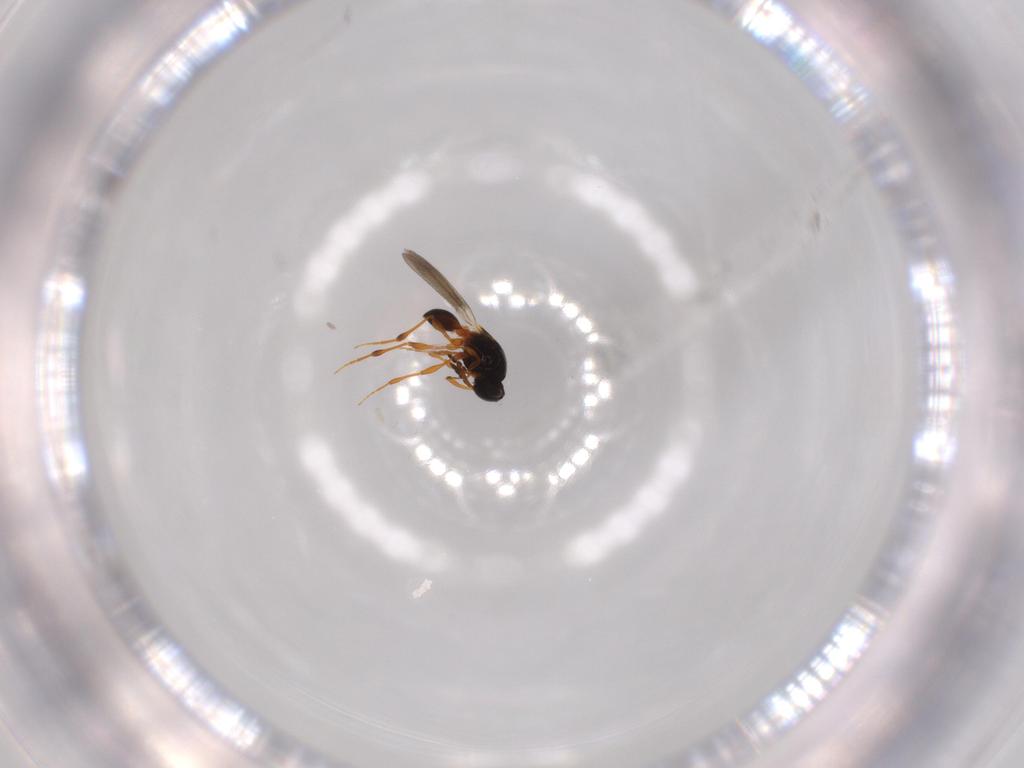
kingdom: Animalia
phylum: Arthropoda
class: Insecta
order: Hymenoptera
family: Platygastridae
